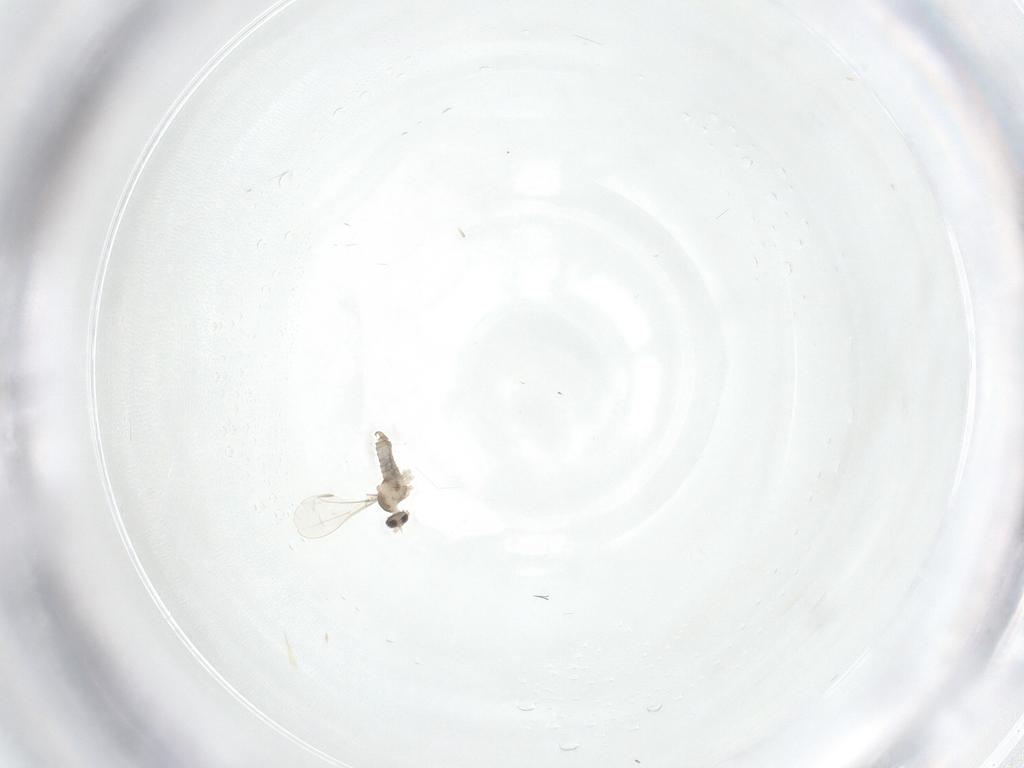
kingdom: Animalia
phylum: Arthropoda
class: Insecta
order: Diptera
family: Cecidomyiidae
